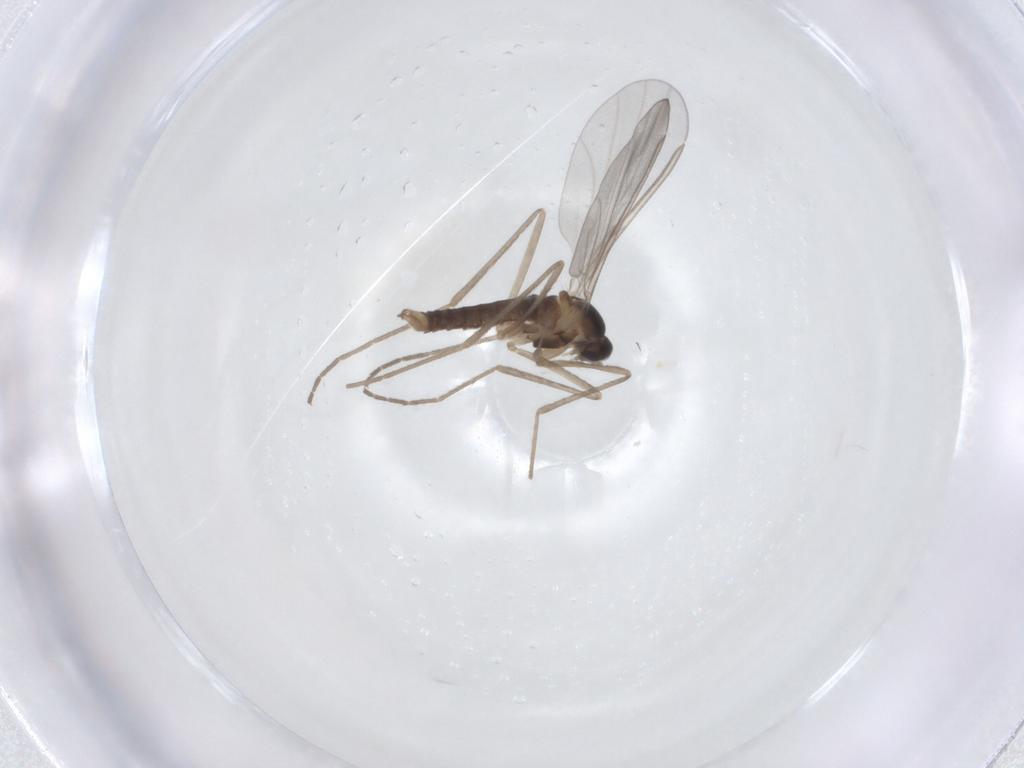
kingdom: Animalia
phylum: Arthropoda
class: Insecta
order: Diptera
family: Cecidomyiidae
